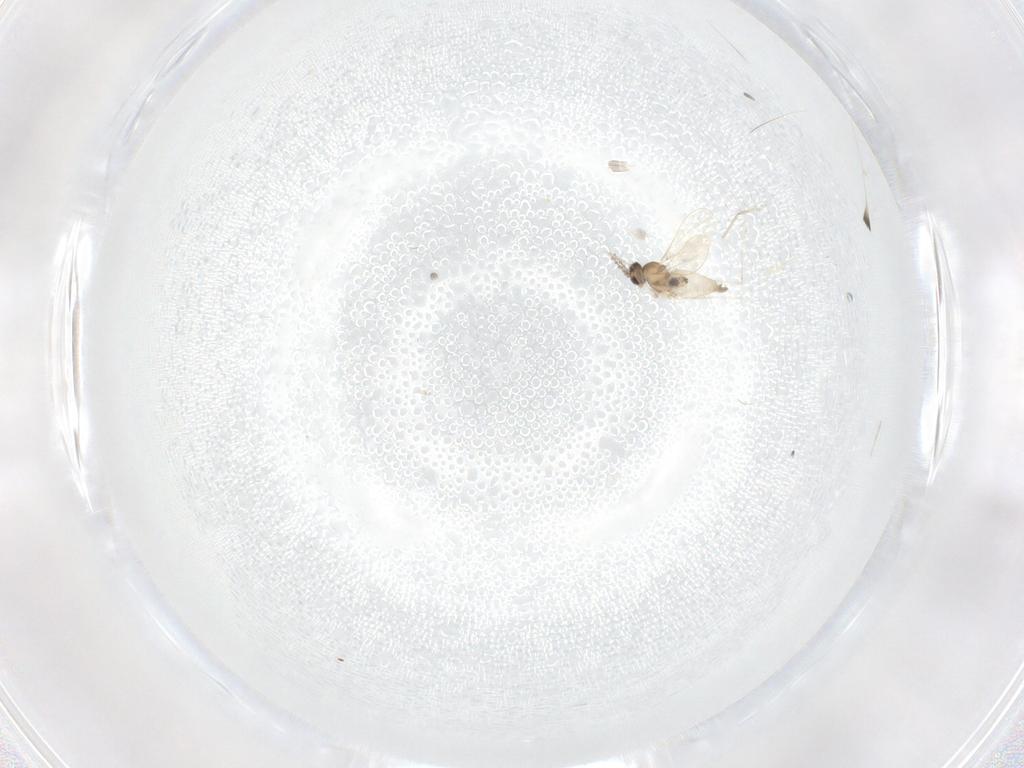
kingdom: Animalia
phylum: Arthropoda
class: Insecta
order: Diptera
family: Cecidomyiidae
